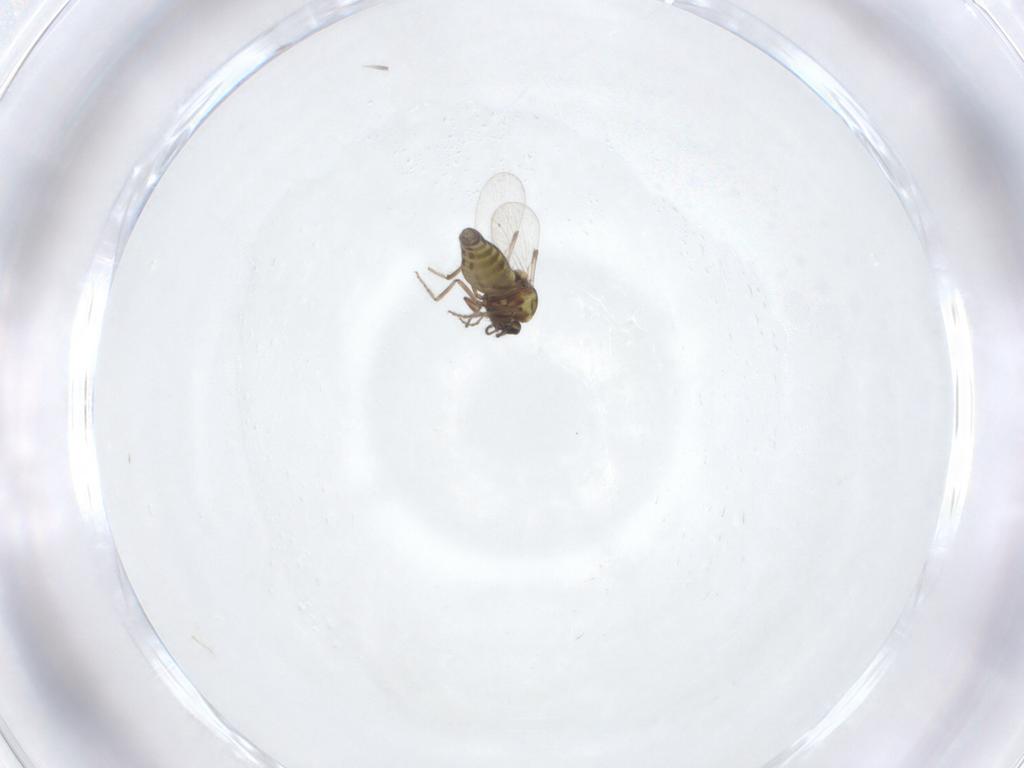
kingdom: Animalia
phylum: Arthropoda
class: Insecta
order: Diptera
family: Ceratopogonidae
